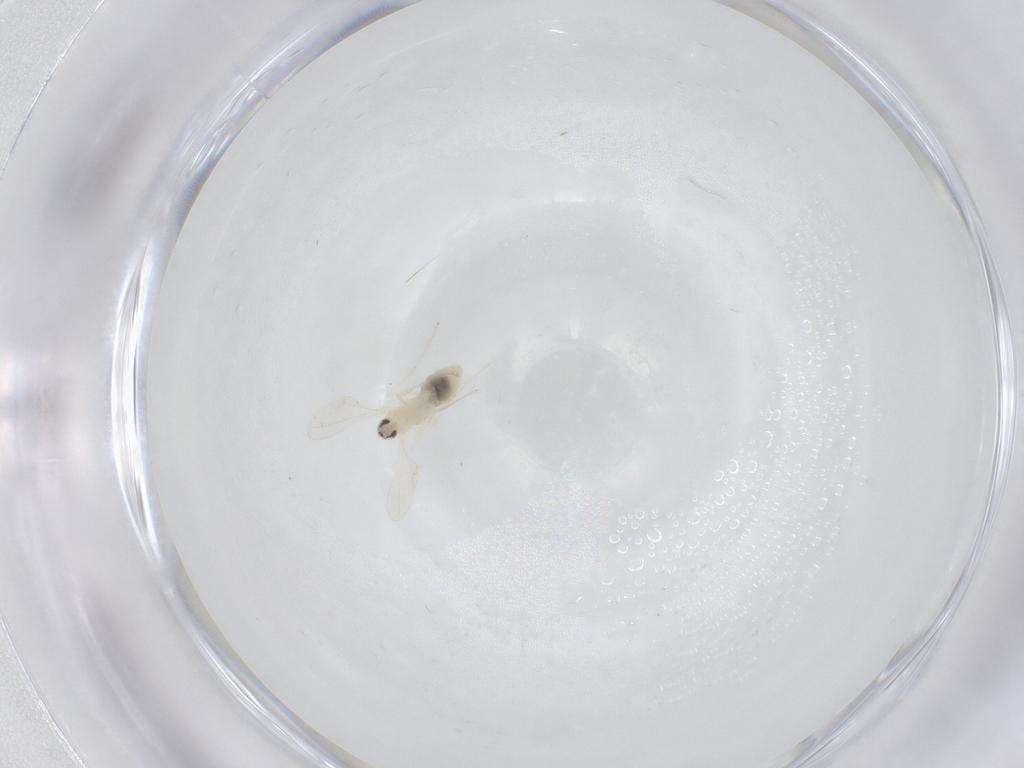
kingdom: Animalia
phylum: Arthropoda
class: Insecta
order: Diptera
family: Cecidomyiidae
